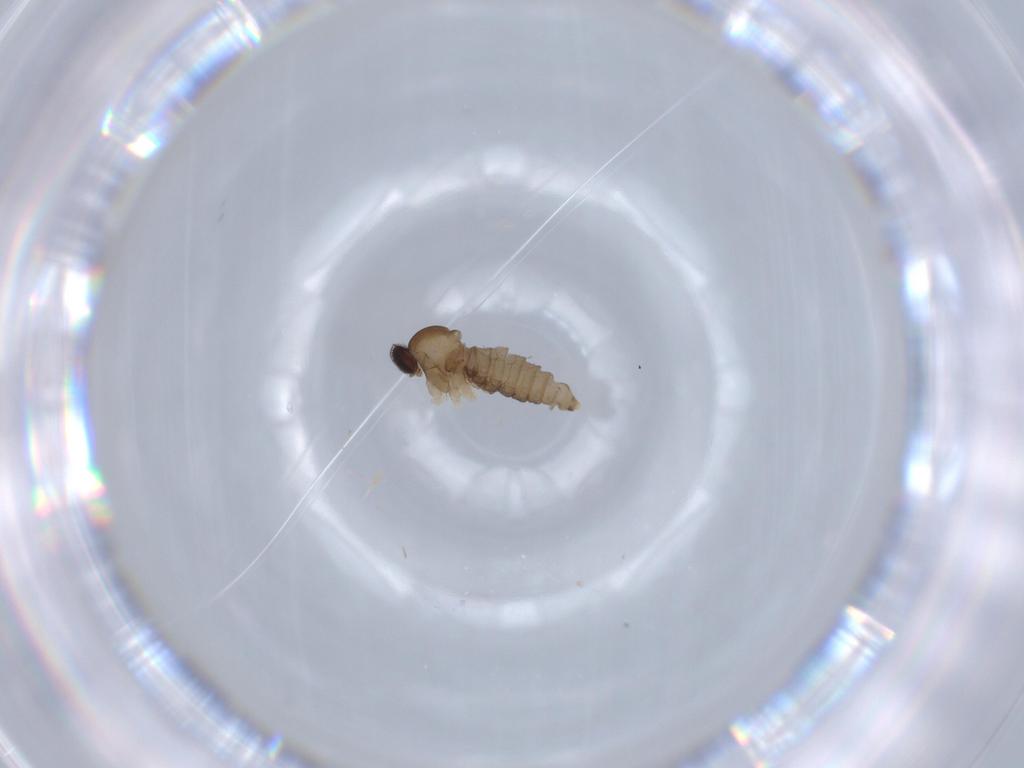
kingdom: Animalia
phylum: Arthropoda
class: Insecta
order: Diptera
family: Cecidomyiidae
